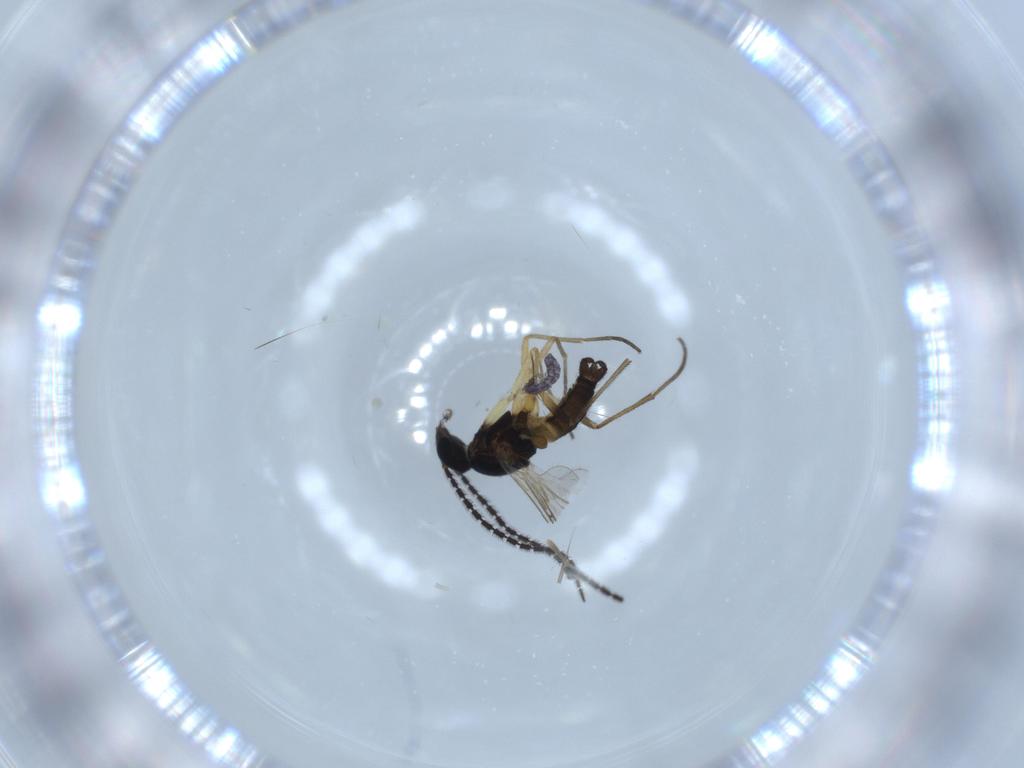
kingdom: Animalia
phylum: Arthropoda
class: Insecta
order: Diptera
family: Sciaridae
